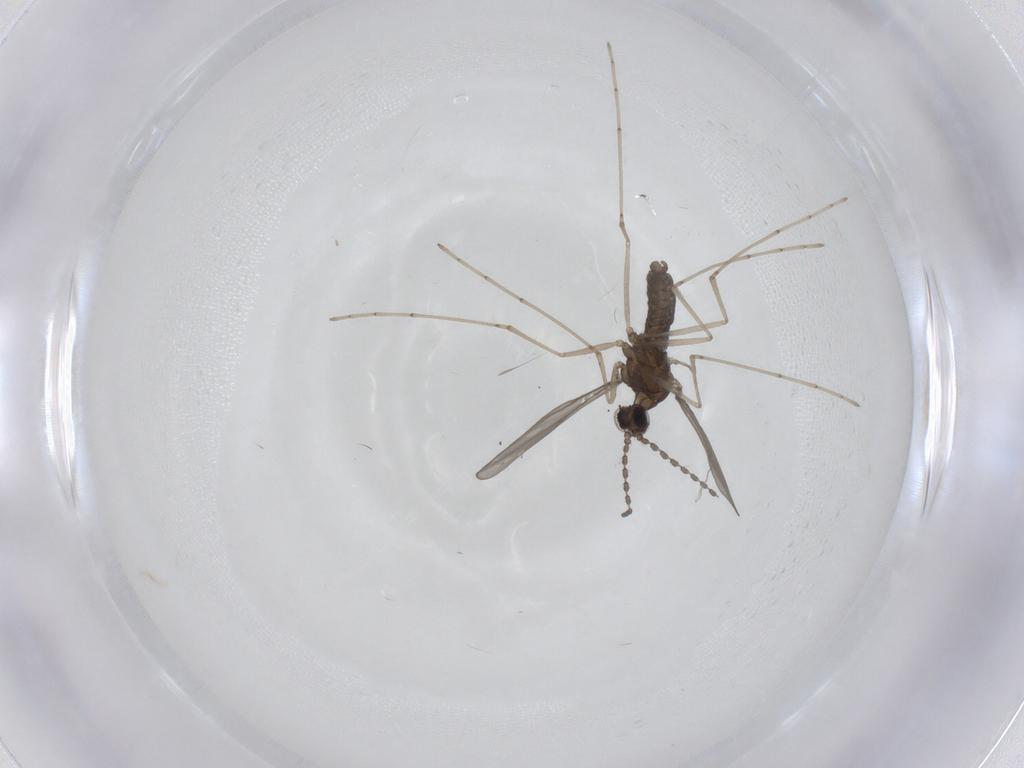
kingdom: Animalia
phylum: Arthropoda
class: Insecta
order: Diptera
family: Cecidomyiidae
